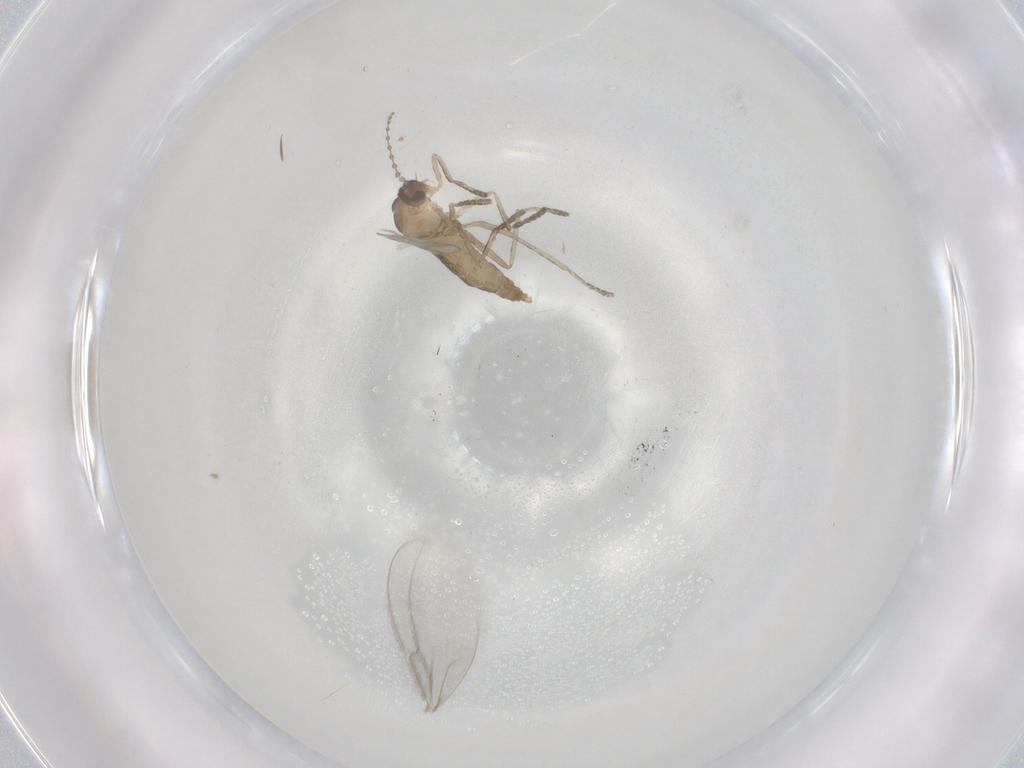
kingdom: Animalia
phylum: Arthropoda
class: Insecta
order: Diptera
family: Cecidomyiidae
